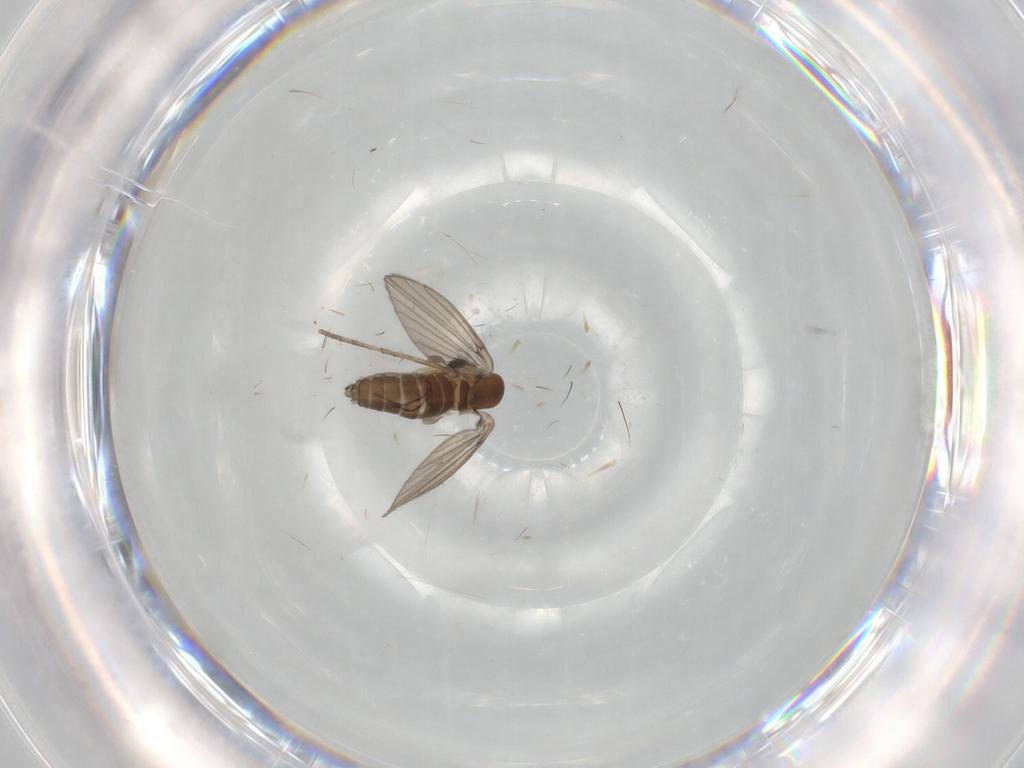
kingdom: Animalia
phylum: Arthropoda
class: Insecta
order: Diptera
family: Psychodidae
